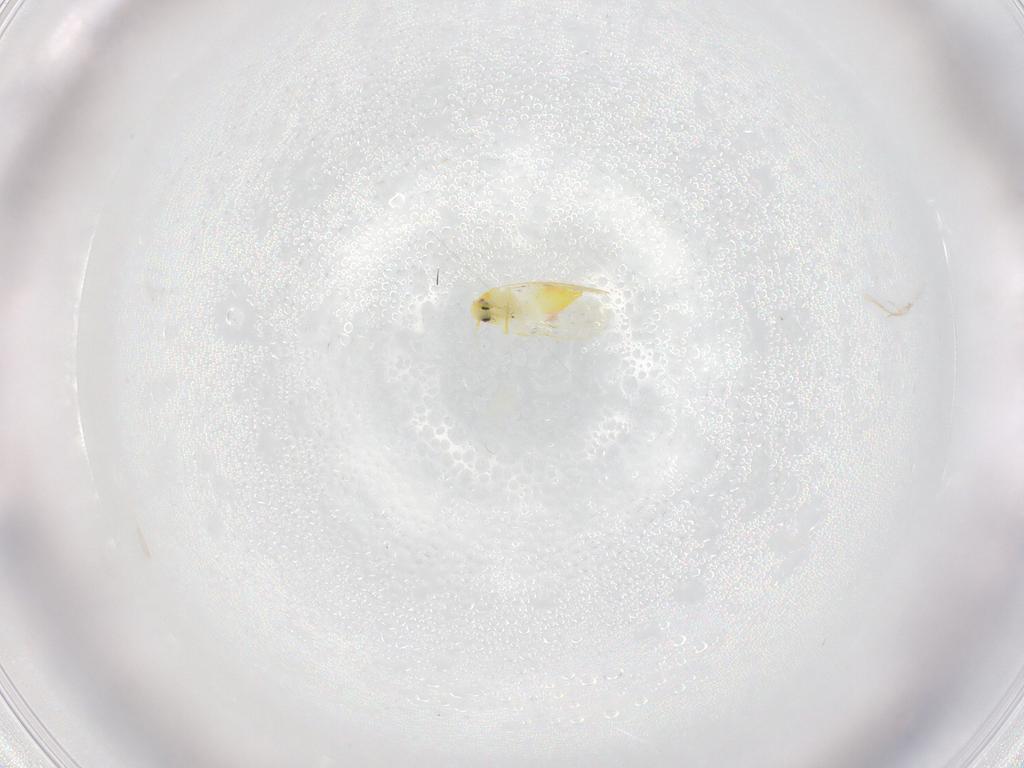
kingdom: Animalia
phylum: Arthropoda
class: Insecta
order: Hemiptera
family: Aleyrodidae
